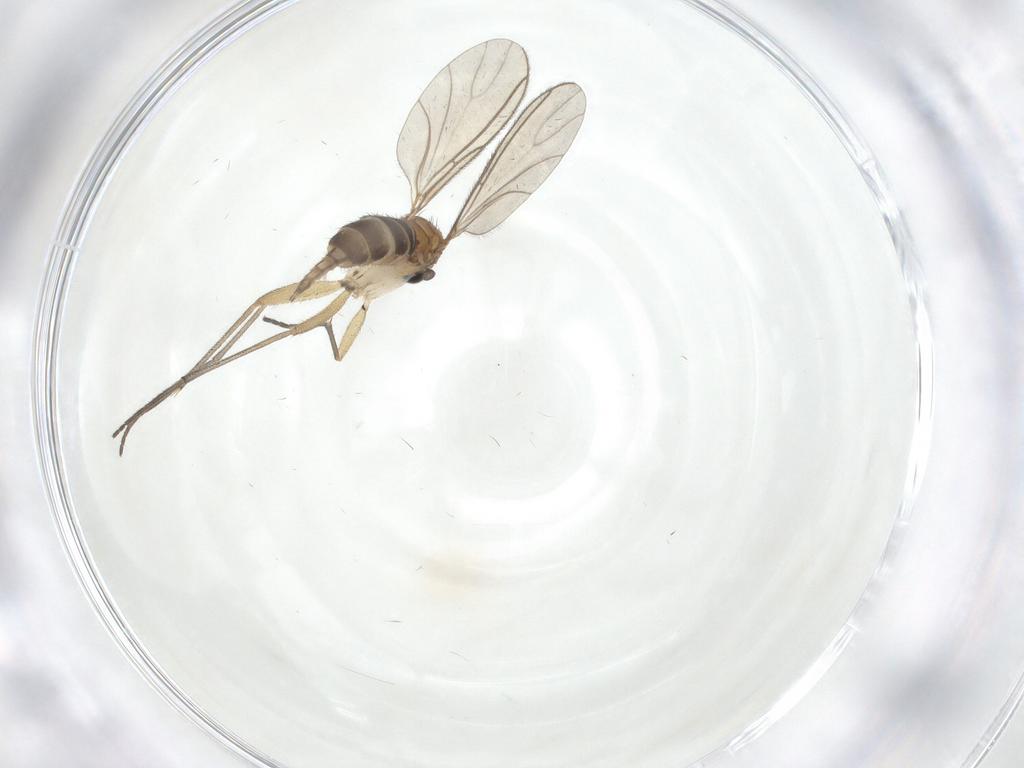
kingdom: Animalia
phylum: Arthropoda
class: Insecta
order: Diptera
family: Sciaridae
